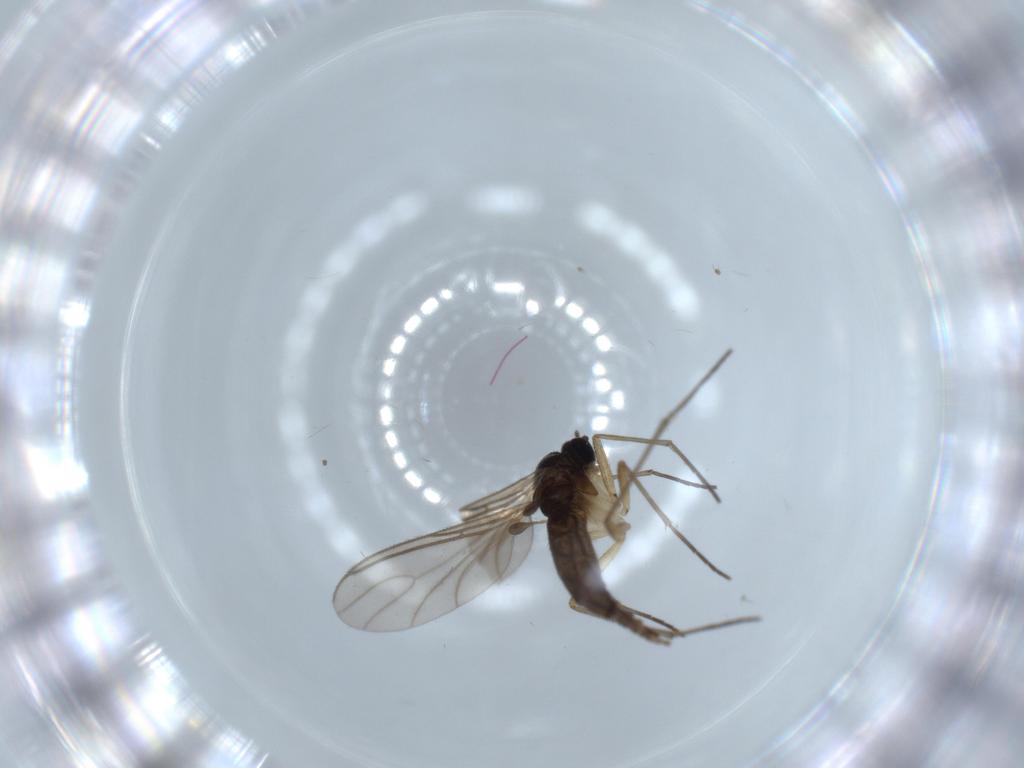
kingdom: Animalia
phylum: Arthropoda
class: Insecta
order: Diptera
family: Sciaridae
